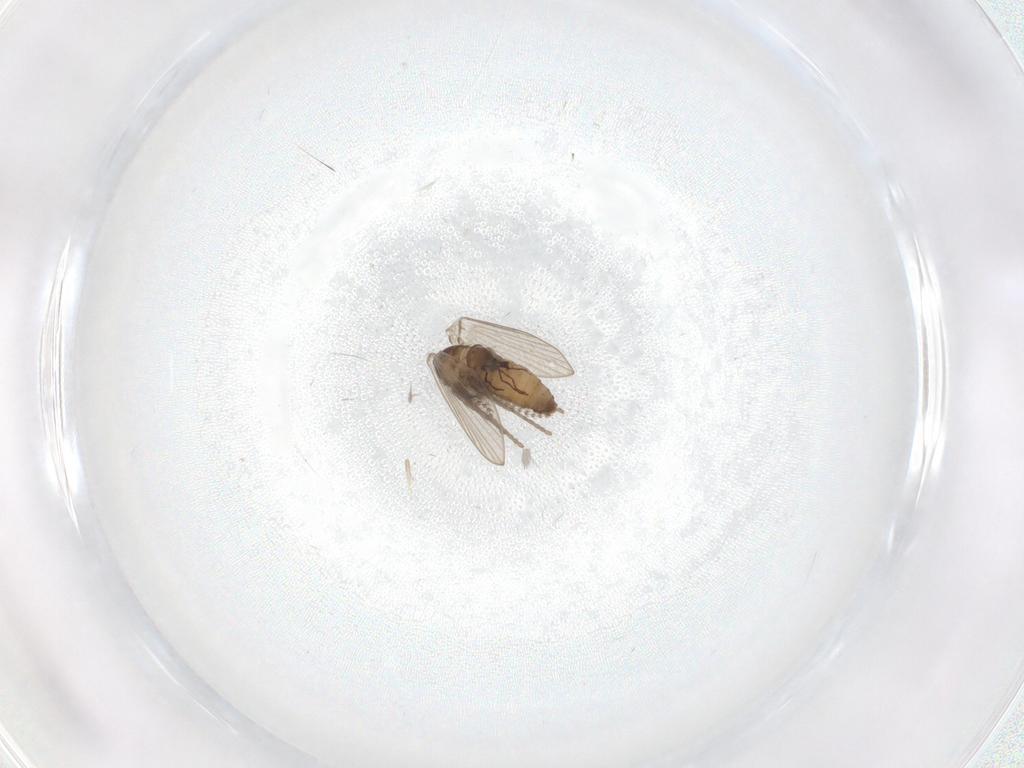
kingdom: Animalia
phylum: Arthropoda
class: Insecta
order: Diptera
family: Psychodidae
